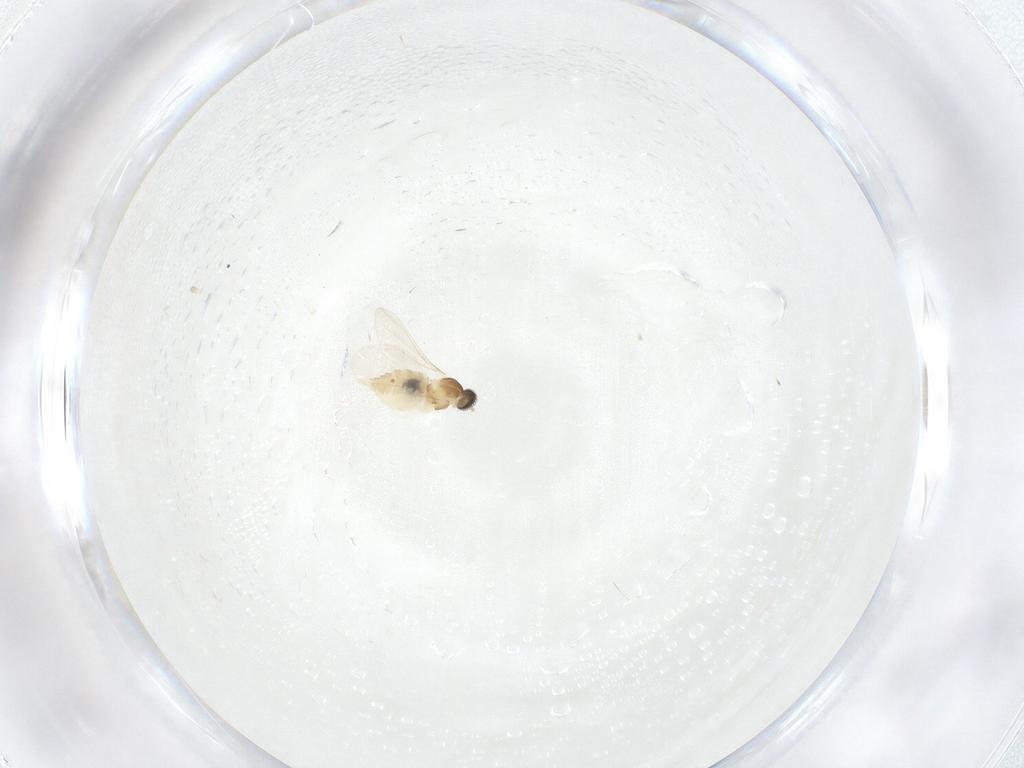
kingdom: Animalia
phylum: Arthropoda
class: Insecta
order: Diptera
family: Cecidomyiidae
